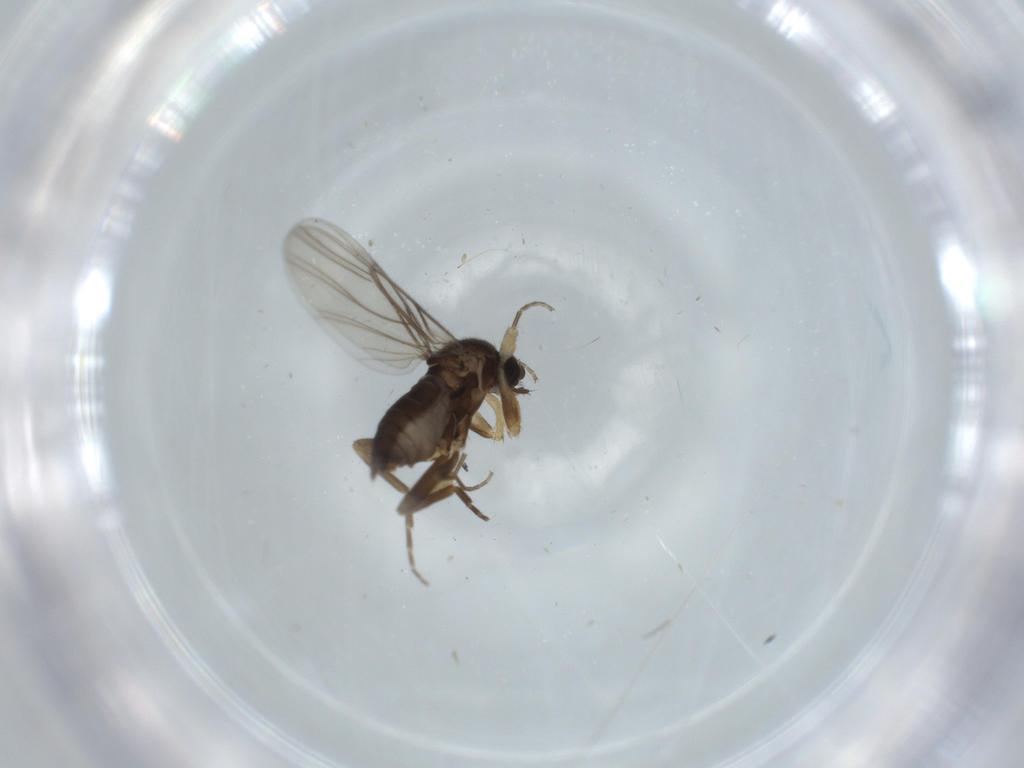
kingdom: Animalia
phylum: Arthropoda
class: Insecta
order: Diptera
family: Phoridae
